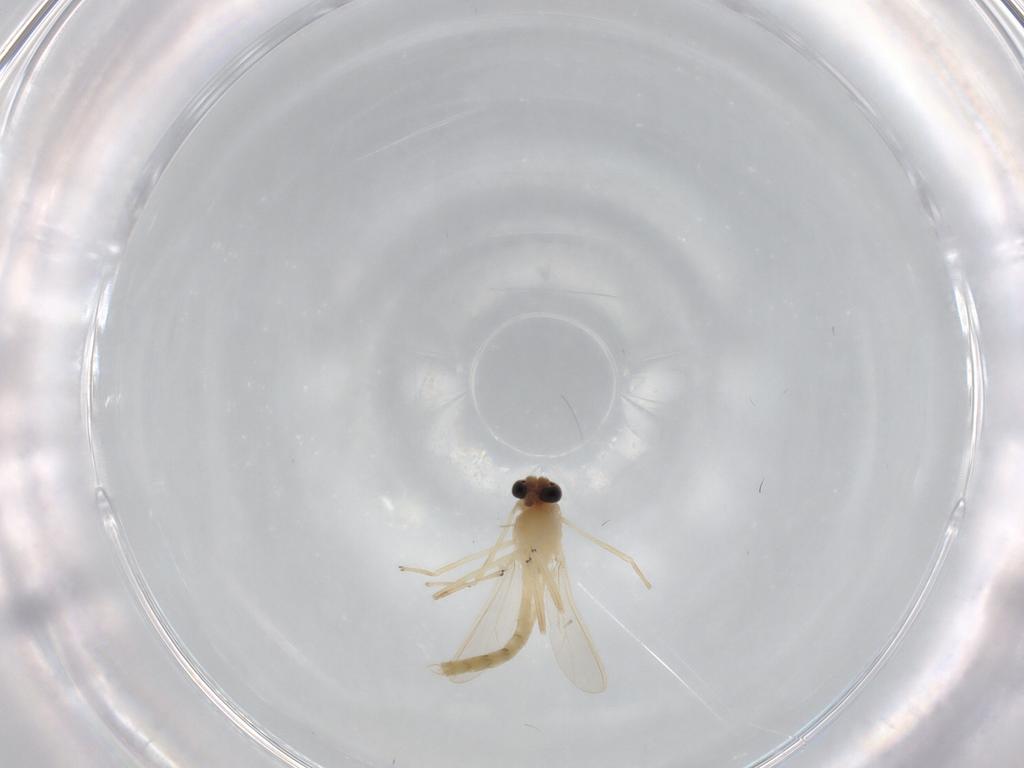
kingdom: Animalia
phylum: Arthropoda
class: Insecta
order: Diptera
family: Chironomidae
